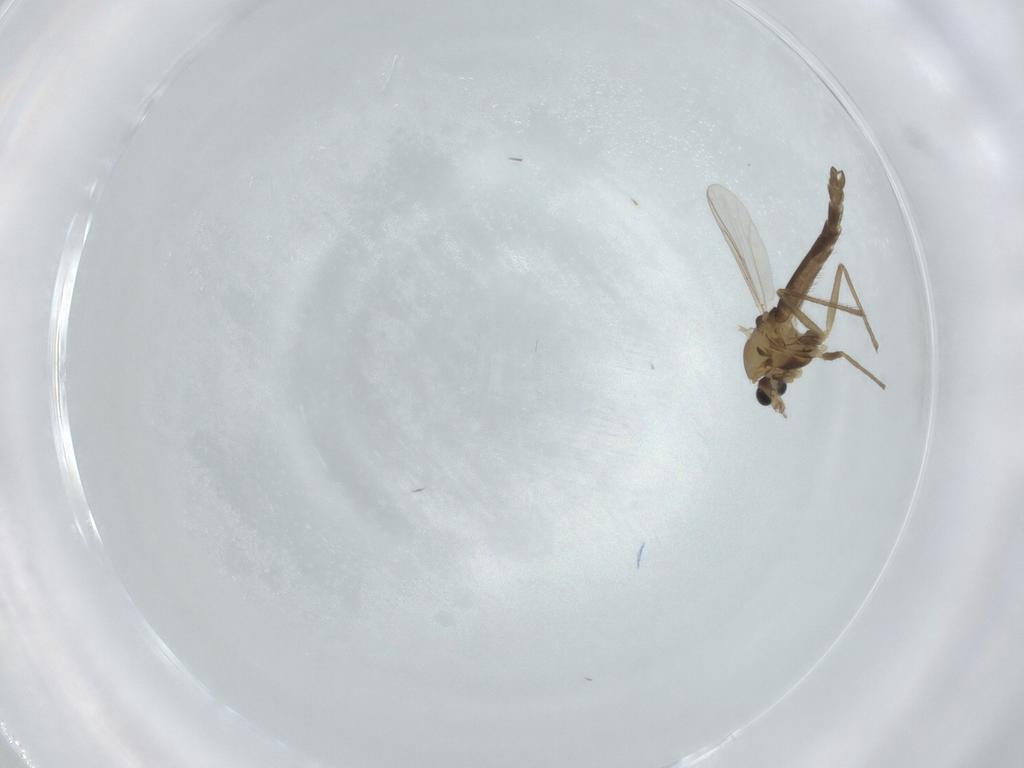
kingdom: Animalia
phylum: Arthropoda
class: Insecta
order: Diptera
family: Chironomidae
